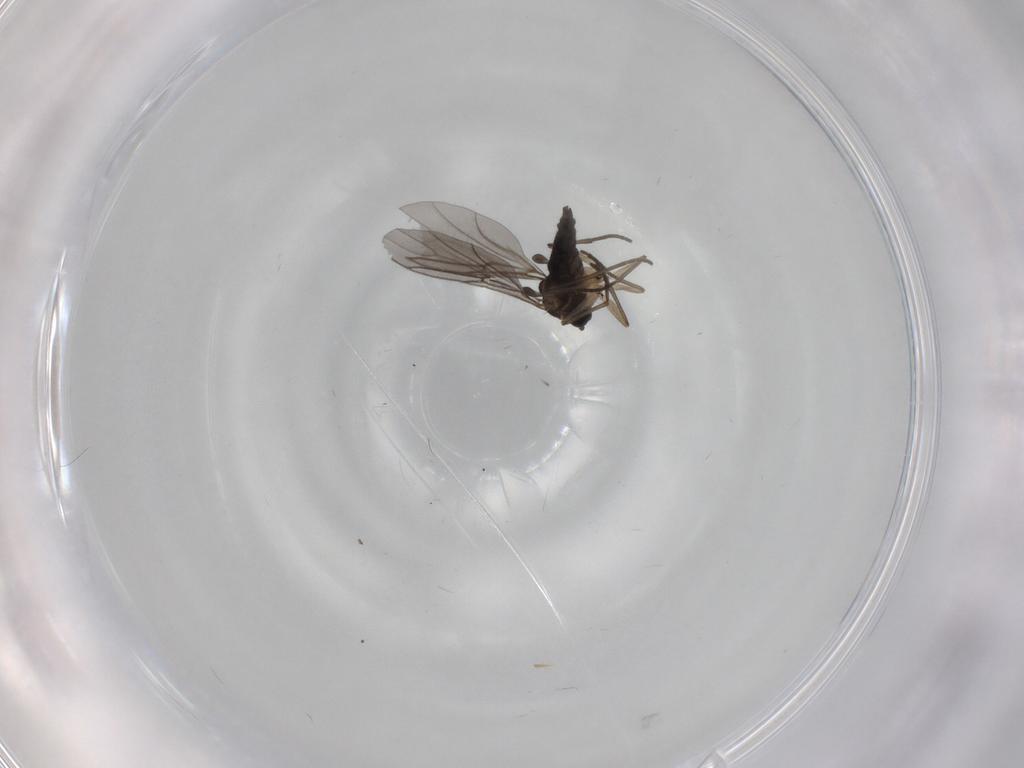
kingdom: Animalia
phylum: Arthropoda
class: Insecta
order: Diptera
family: Sciaridae
